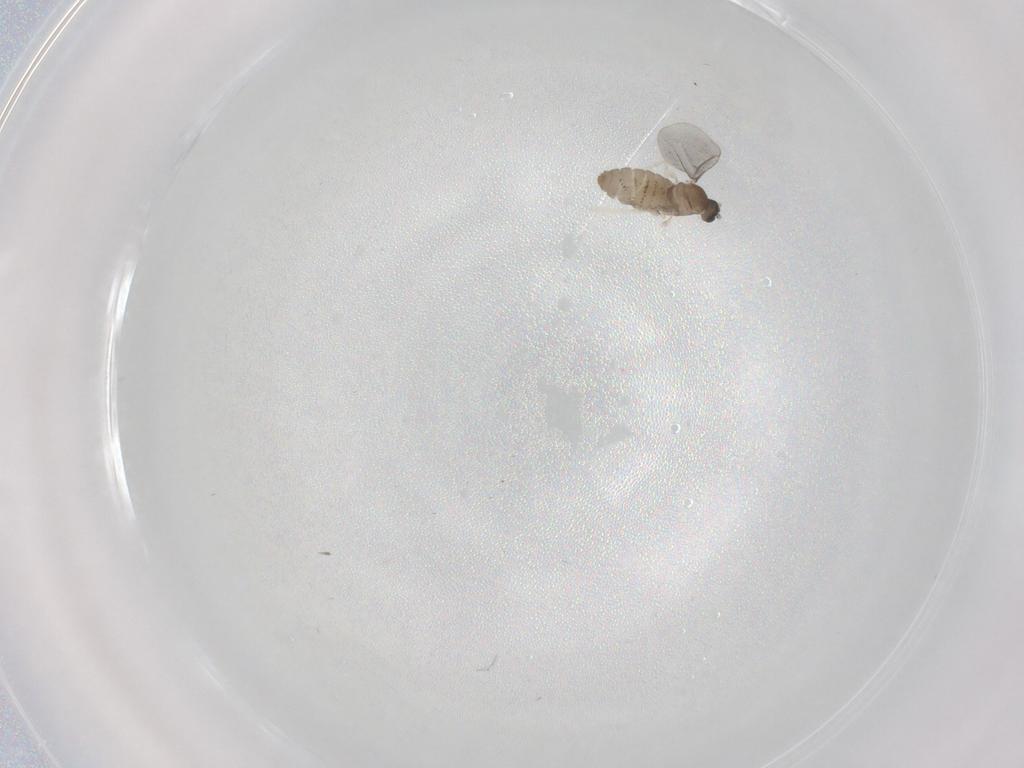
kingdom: Animalia
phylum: Arthropoda
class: Insecta
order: Diptera
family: Cecidomyiidae
